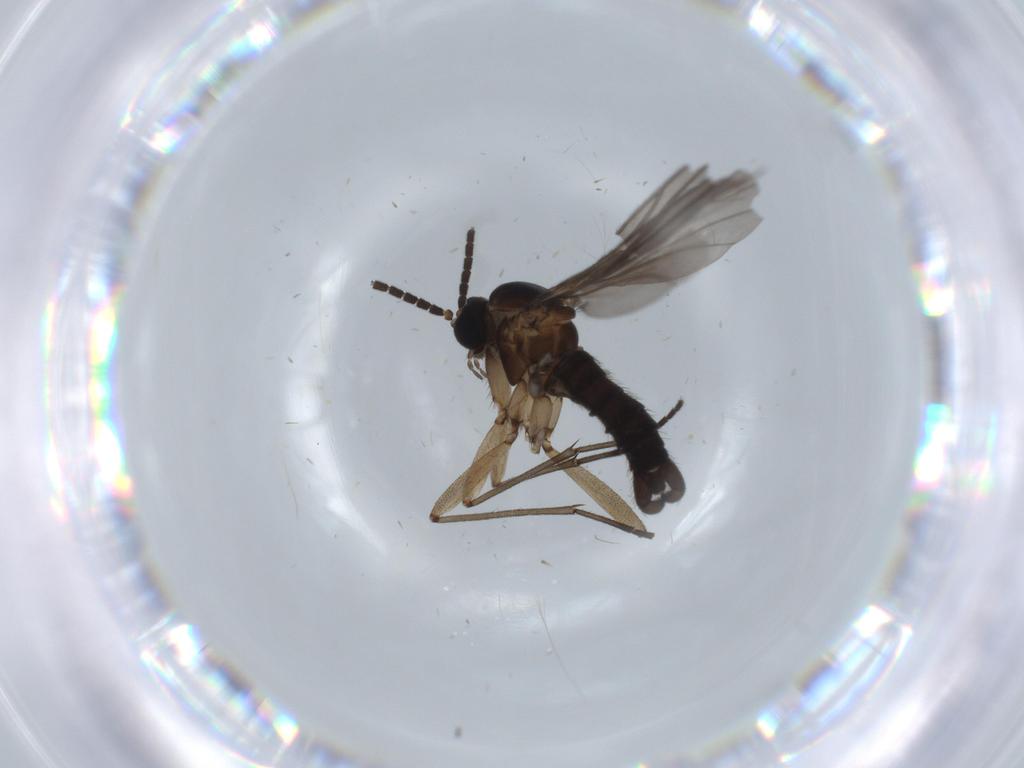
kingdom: Animalia
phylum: Arthropoda
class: Insecta
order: Diptera
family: Sciaridae
